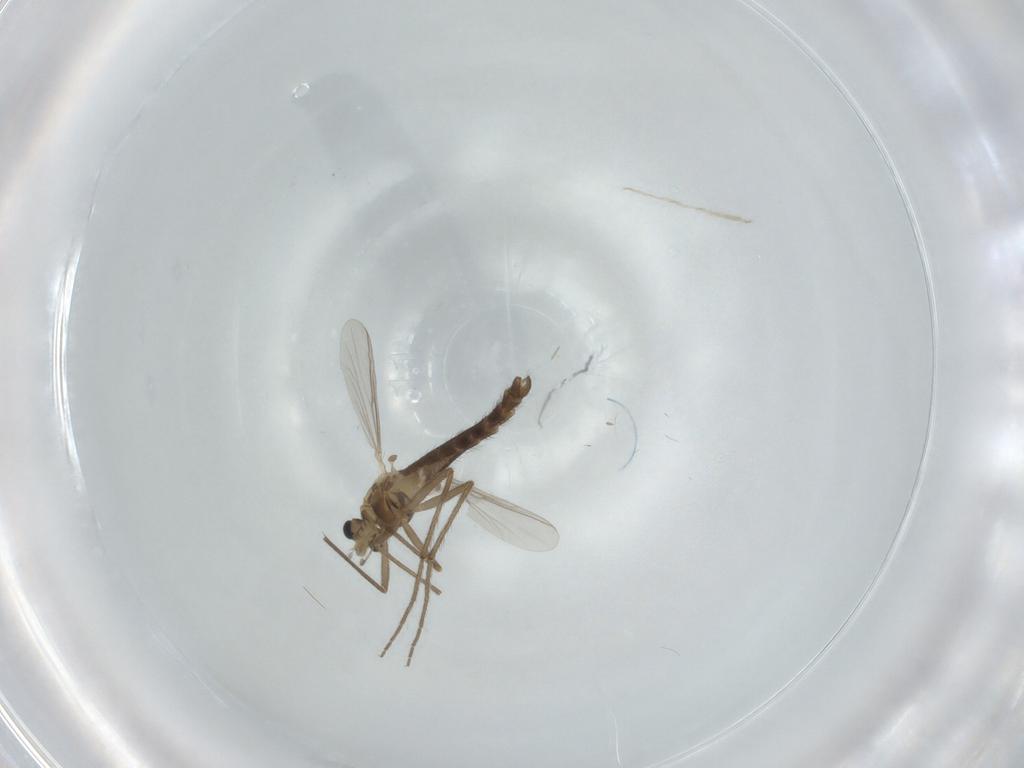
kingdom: Animalia
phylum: Arthropoda
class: Insecta
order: Diptera
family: Chironomidae
